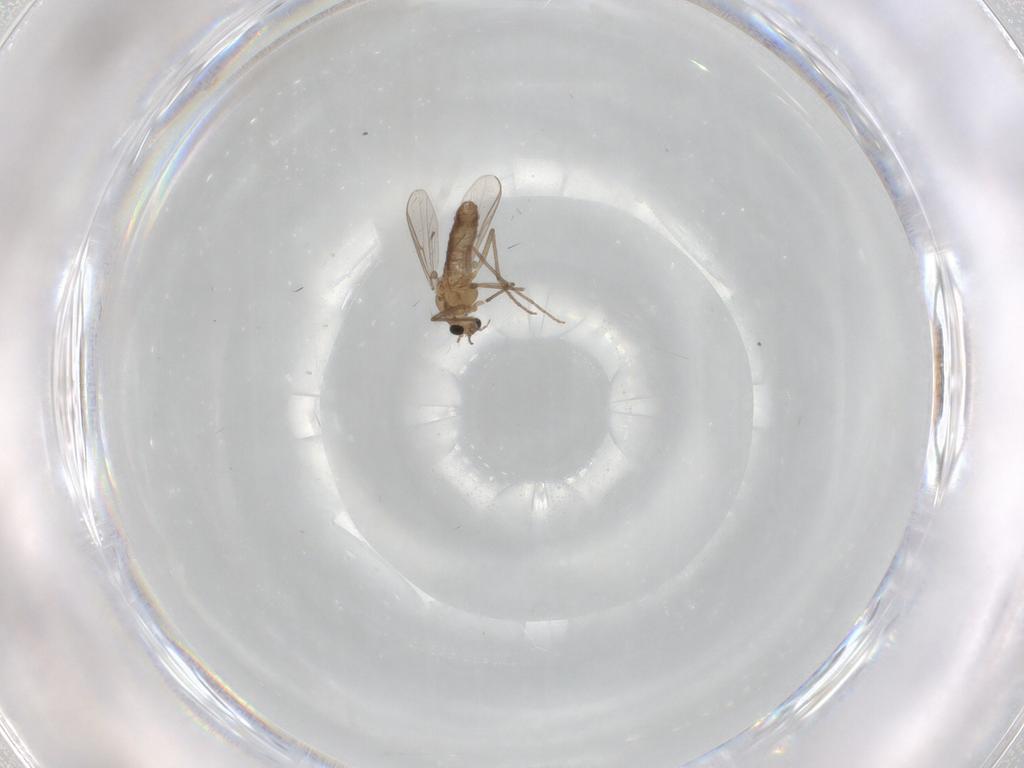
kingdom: Animalia
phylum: Arthropoda
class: Insecta
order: Diptera
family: Chironomidae
